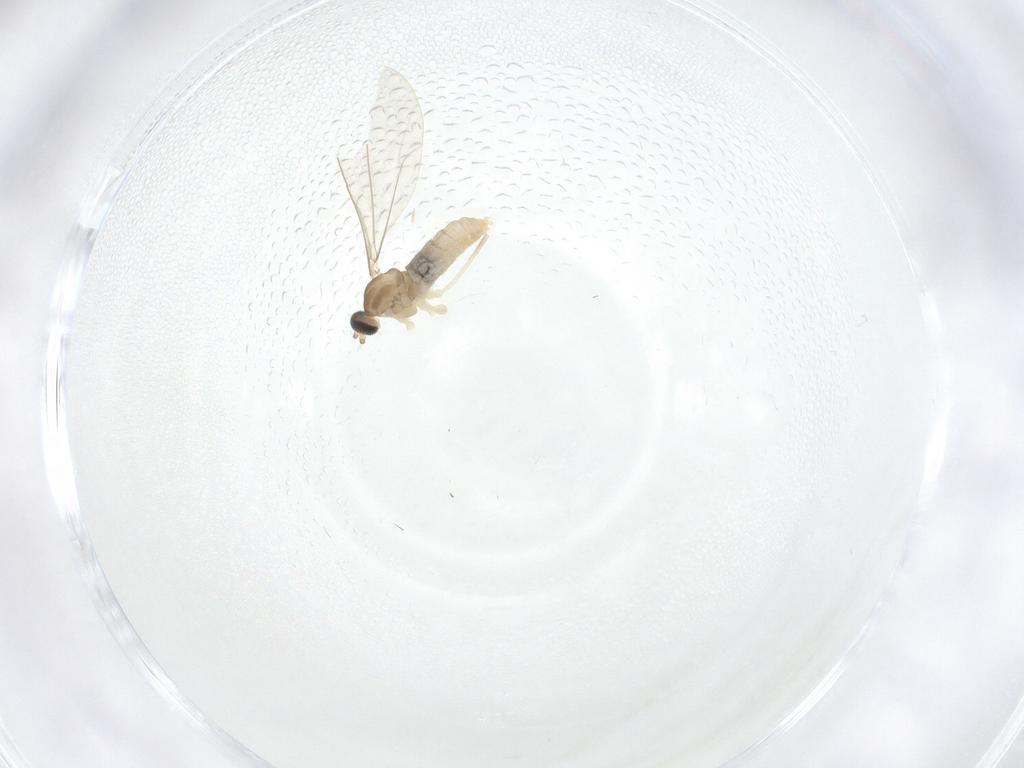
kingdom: Animalia
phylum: Arthropoda
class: Insecta
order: Diptera
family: Cecidomyiidae
